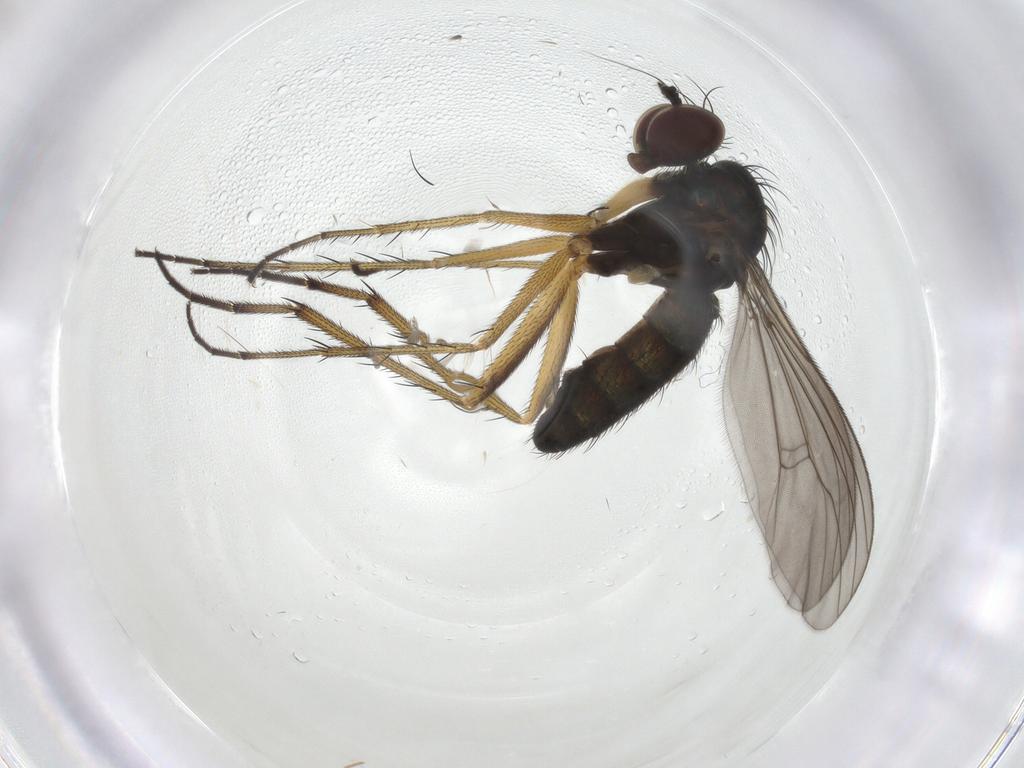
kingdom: Animalia
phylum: Arthropoda
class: Insecta
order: Diptera
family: Dolichopodidae
